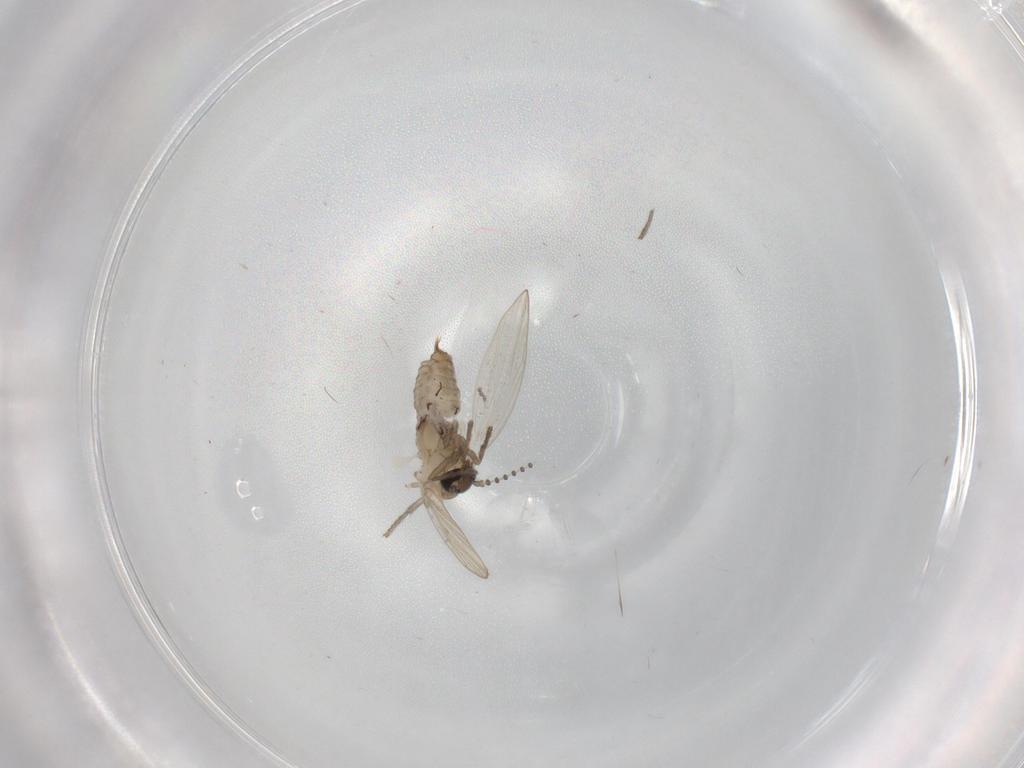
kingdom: Animalia
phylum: Arthropoda
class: Insecta
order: Diptera
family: Psychodidae
